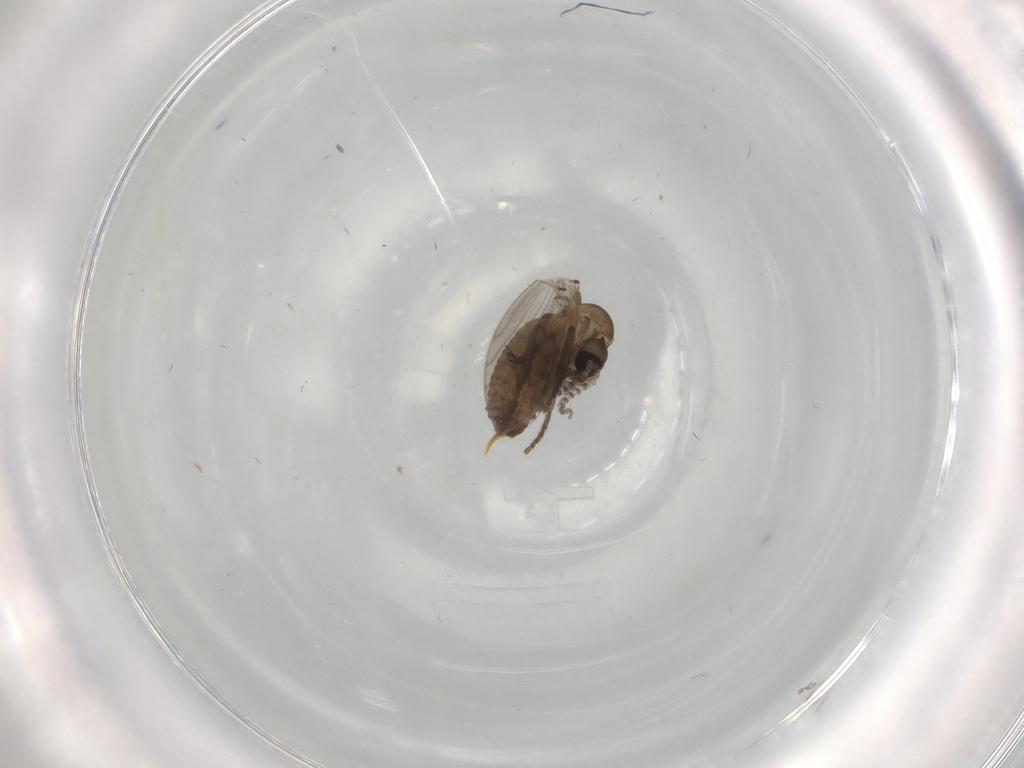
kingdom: Animalia
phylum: Arthropoda
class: Insecta
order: Diptera
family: Psychodidae
